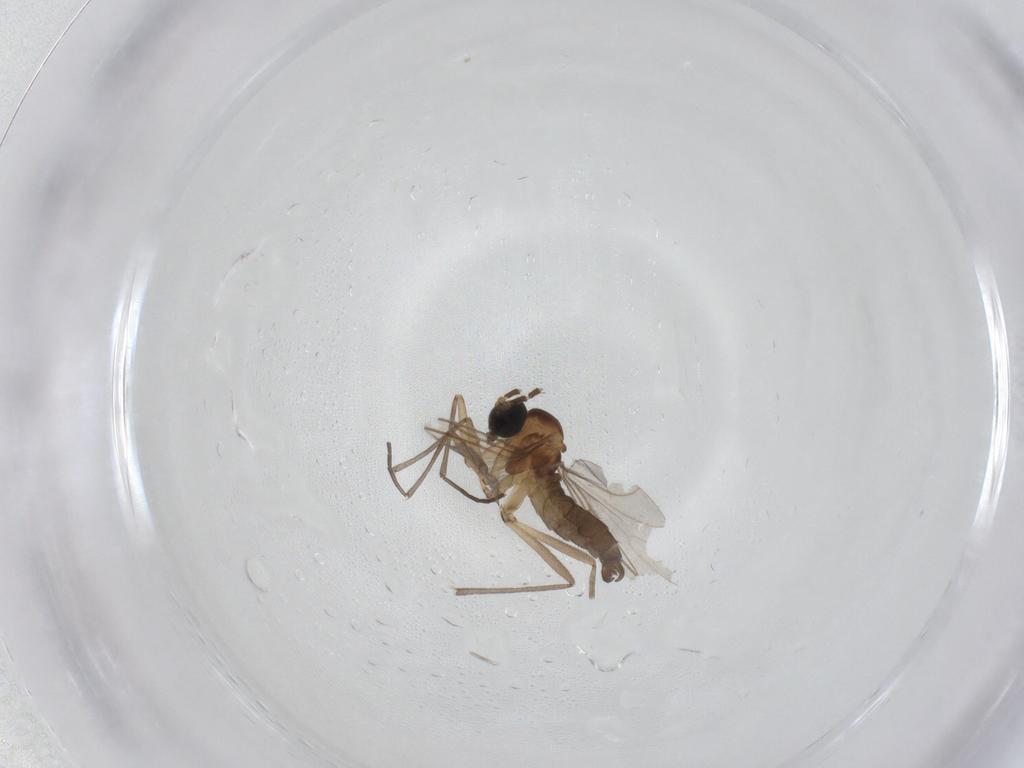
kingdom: Animalia
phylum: Arthropoda
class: Insecta
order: Diptera
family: Sciaridae
